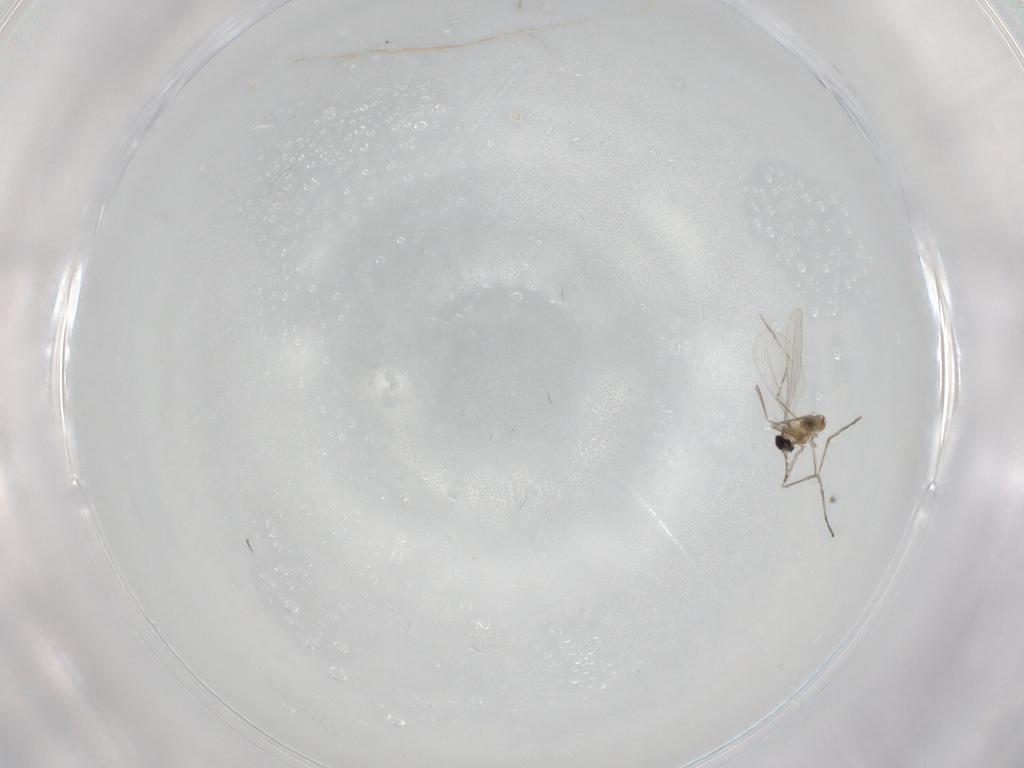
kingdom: Animalia
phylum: Arthropoda
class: Insecta
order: Diptera
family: Cecidomyiidae
